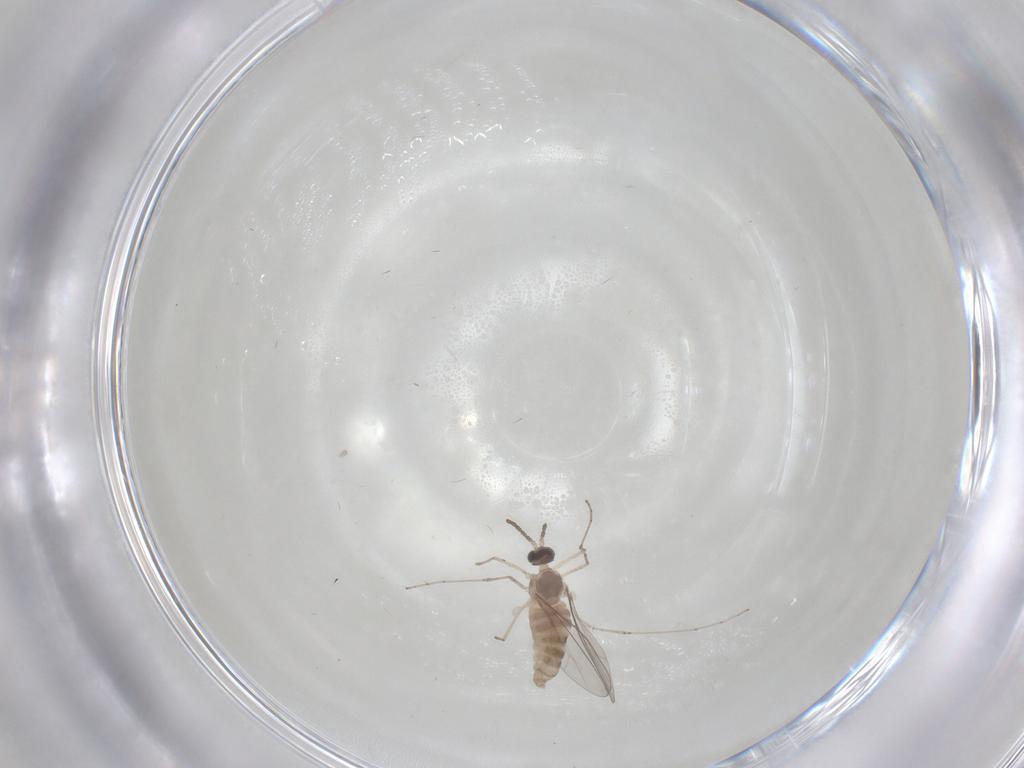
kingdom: Animalia
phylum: Arthropoda
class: Insecta
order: Diptera
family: Cecidomyiidae
